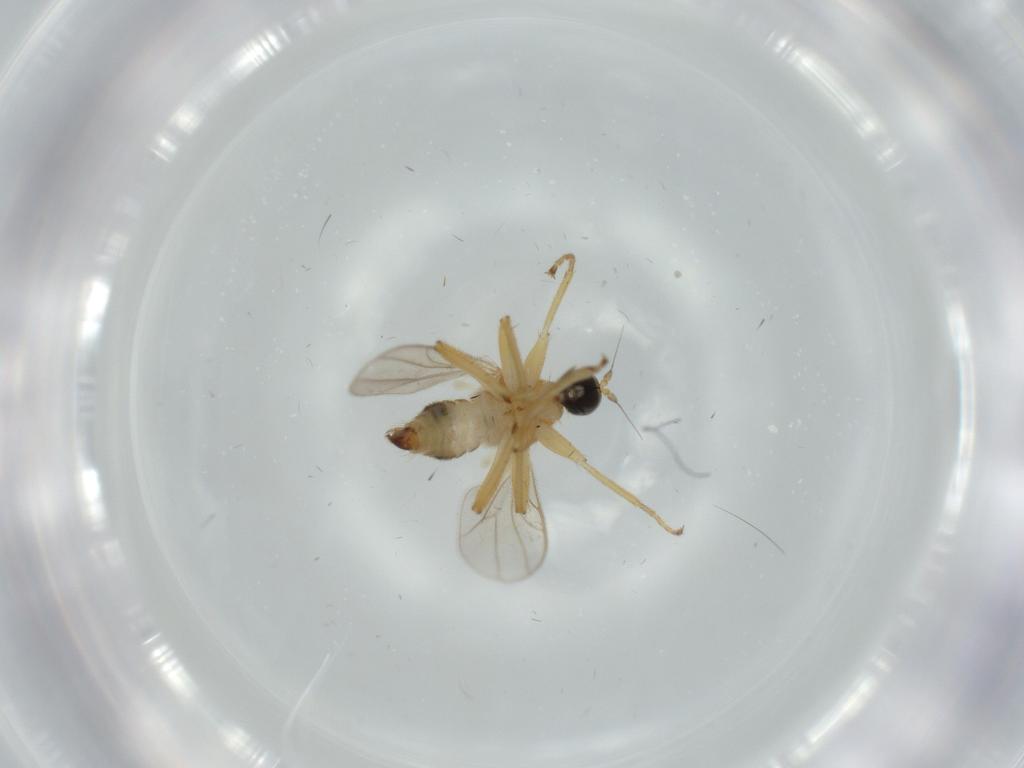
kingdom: Animalia
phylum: Arthropoda
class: Insecta
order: Diptera
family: Hybotidae
